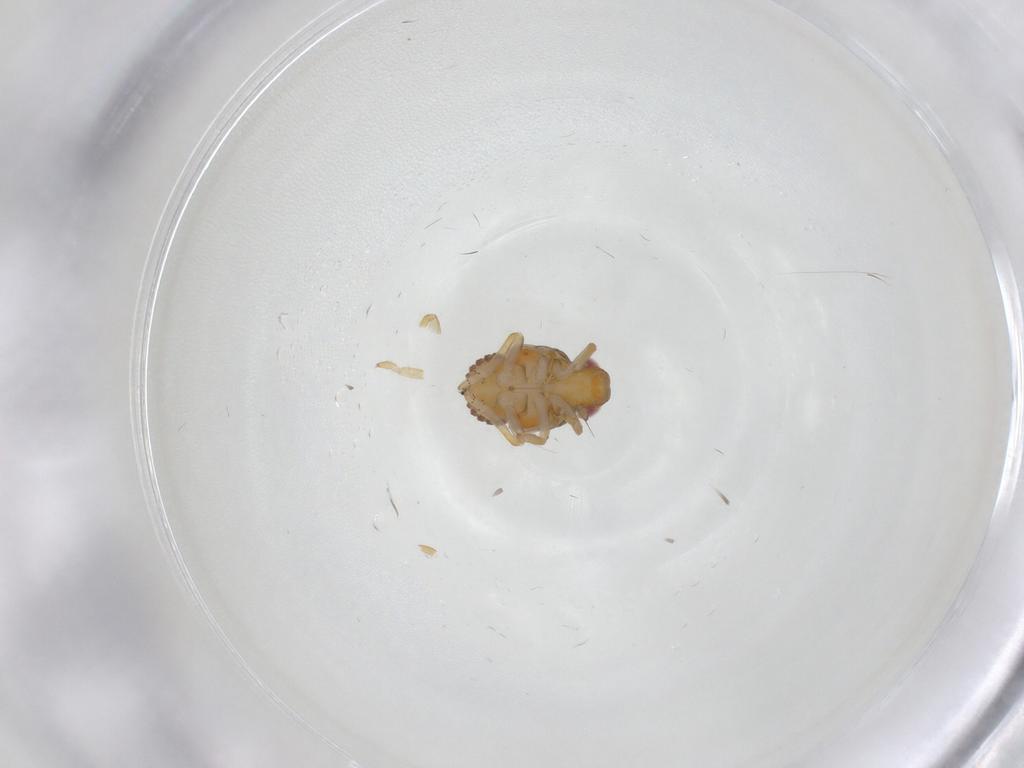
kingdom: Animalia
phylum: Arthropoda
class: Insecta
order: Hemiptera
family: Issidae
